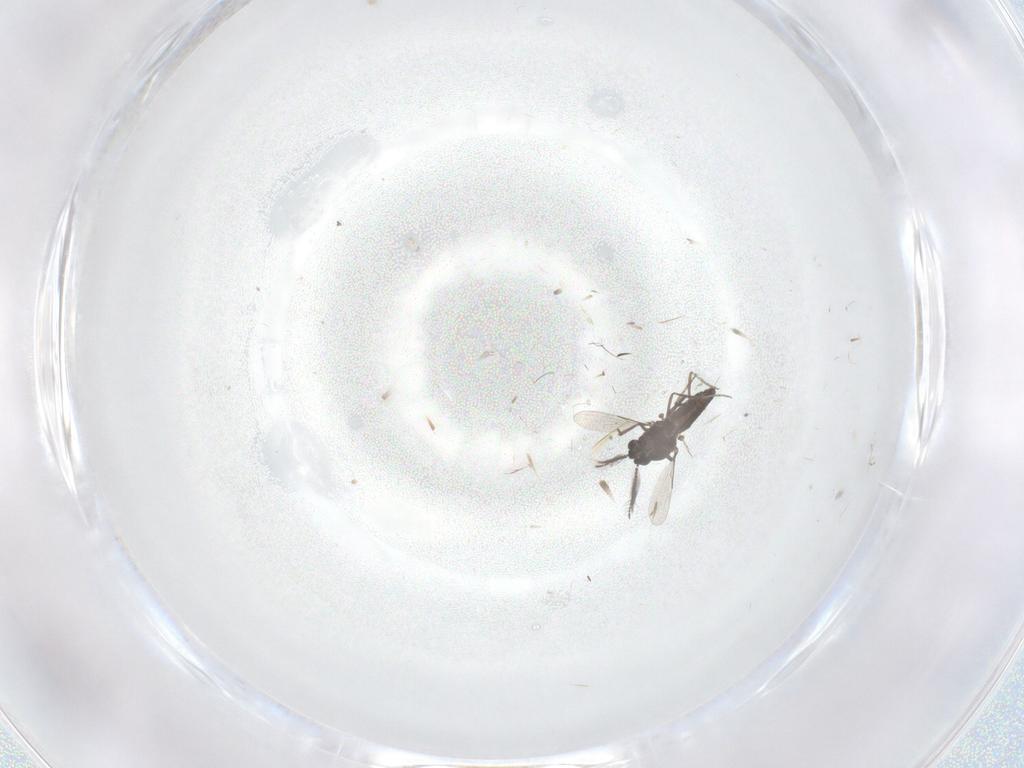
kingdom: Animalia
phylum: Arthropoda
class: Insecta
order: Diptera
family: Ceratopogonidae
